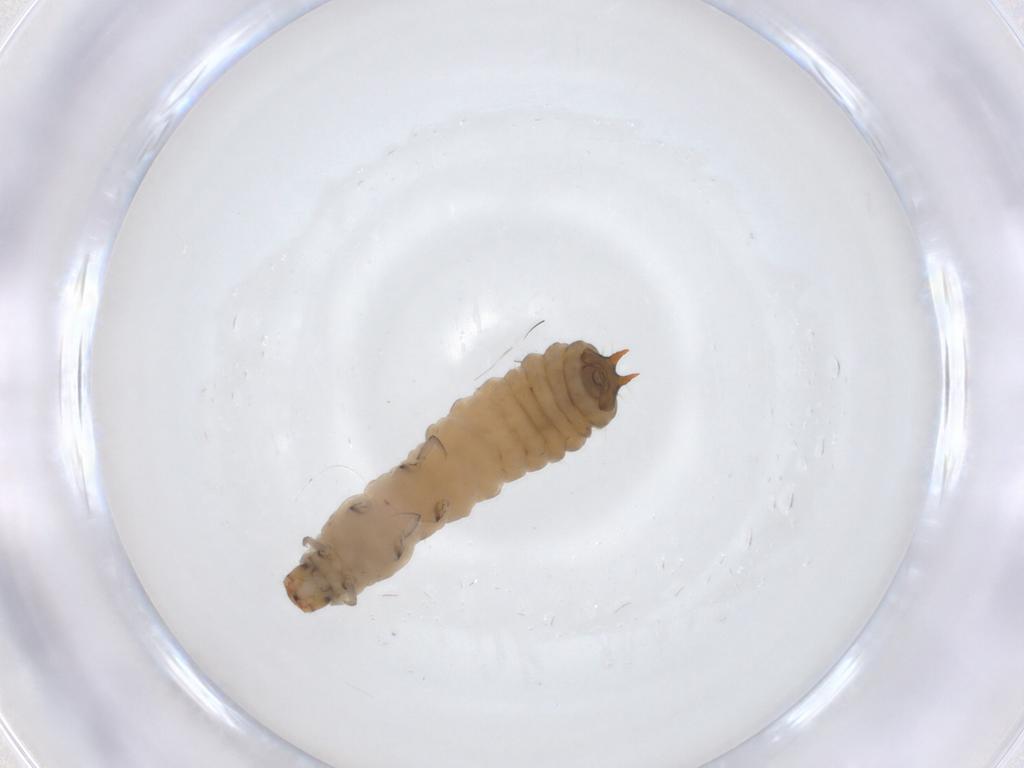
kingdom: Animalia
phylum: Arthropoda
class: Insecta
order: Coleoptera
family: Melyridae
